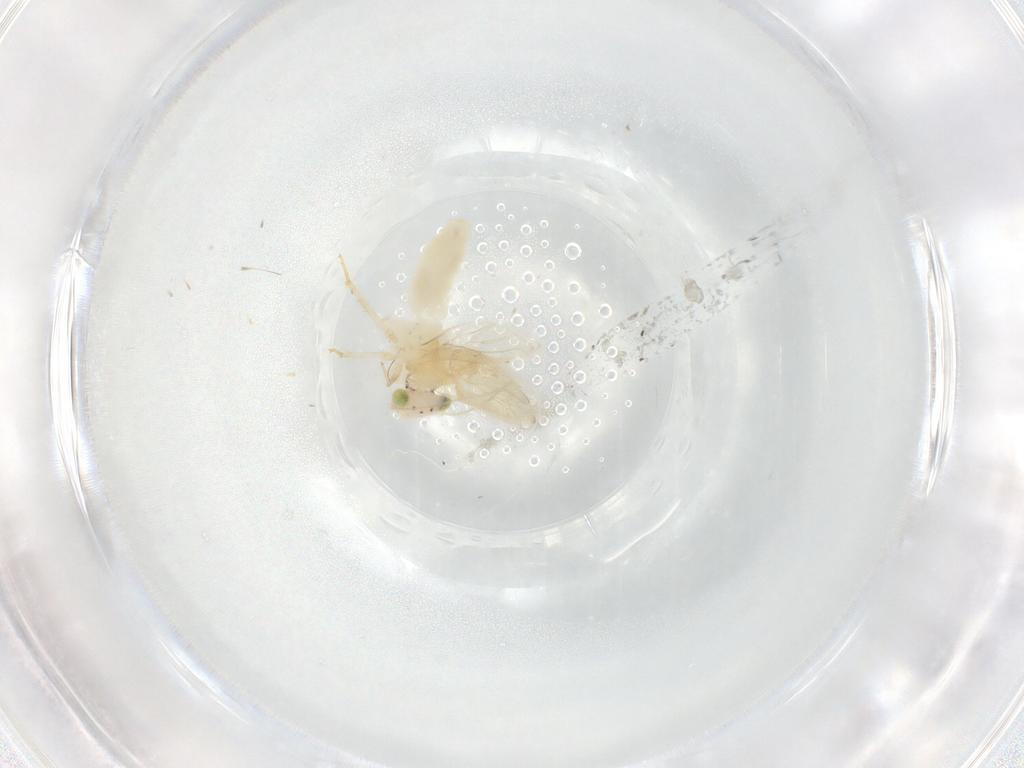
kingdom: Animalia
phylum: Arthropoda
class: Insecta
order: Psocodea
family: Lepidopsocidae
